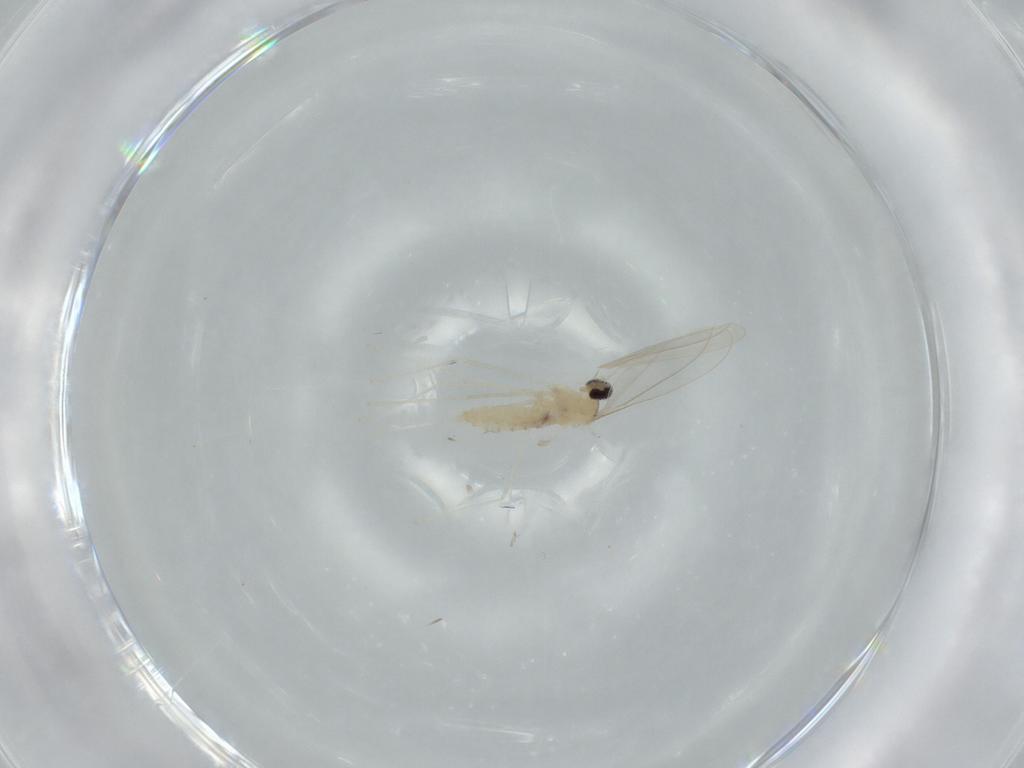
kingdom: Animalia
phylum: Arthropoda
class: Insecta
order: Diptera
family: Cecidomyiidae
